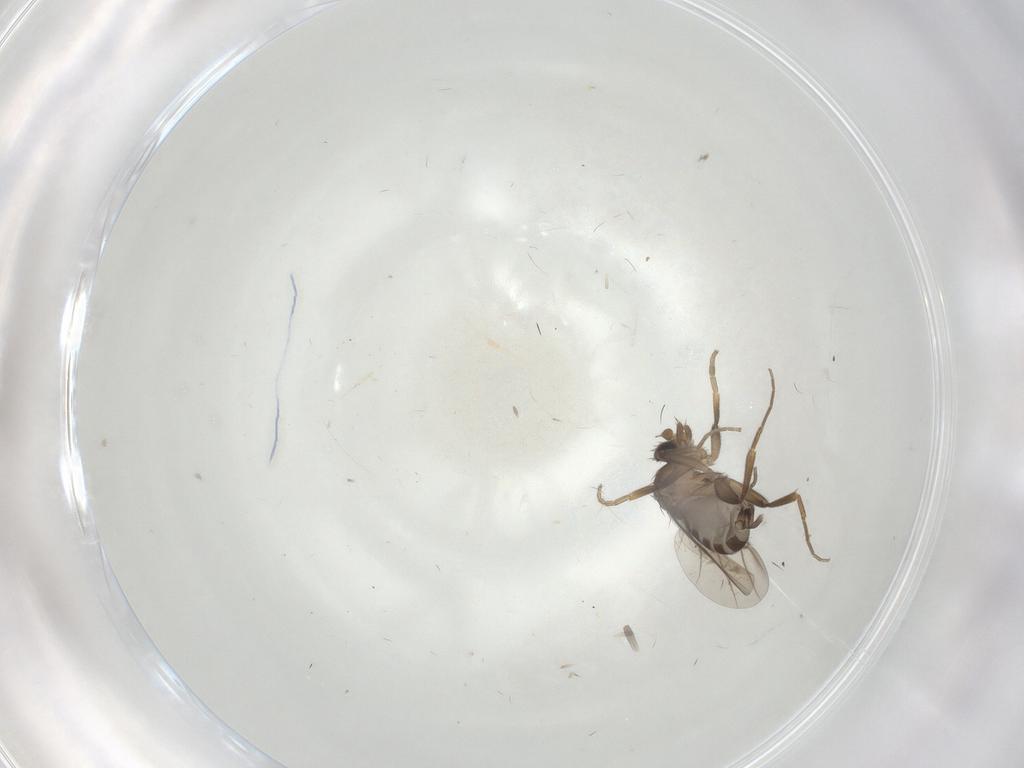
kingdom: Animalia
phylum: Arthropoda
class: Insecta
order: Diptera
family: Phoridae
